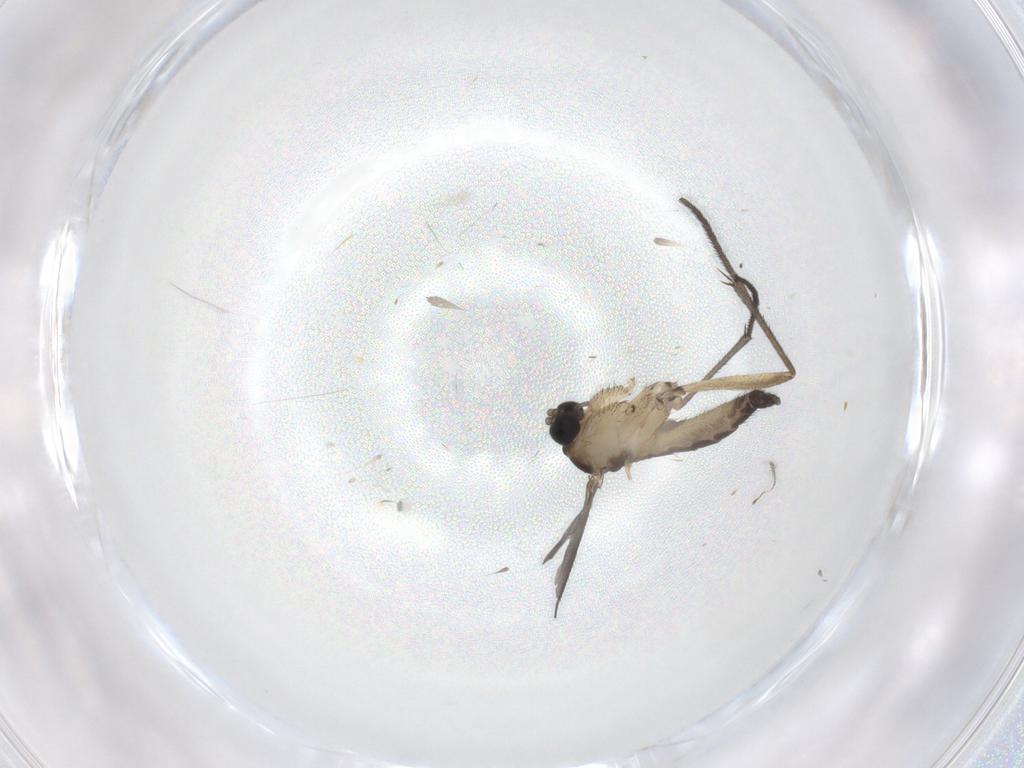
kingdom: Animalia
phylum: Arthropoda
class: Insecta
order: Diptera
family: Sciaridae
